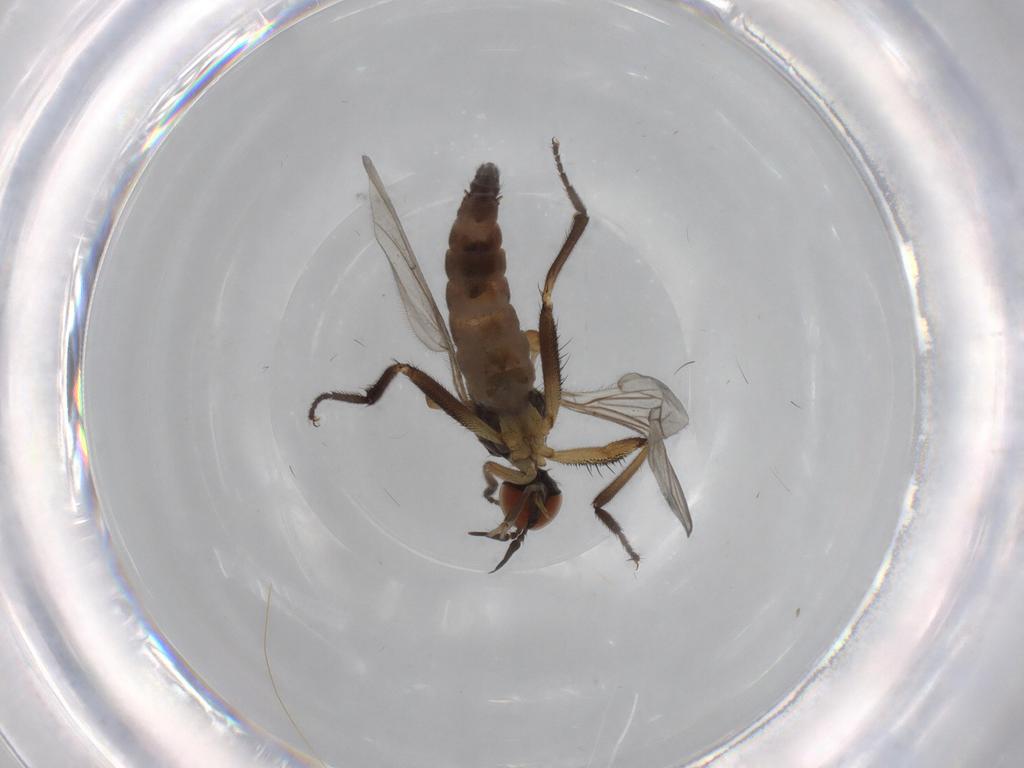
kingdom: Animalia
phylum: Arthropoda
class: Insecta
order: Diptera
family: Empididae
